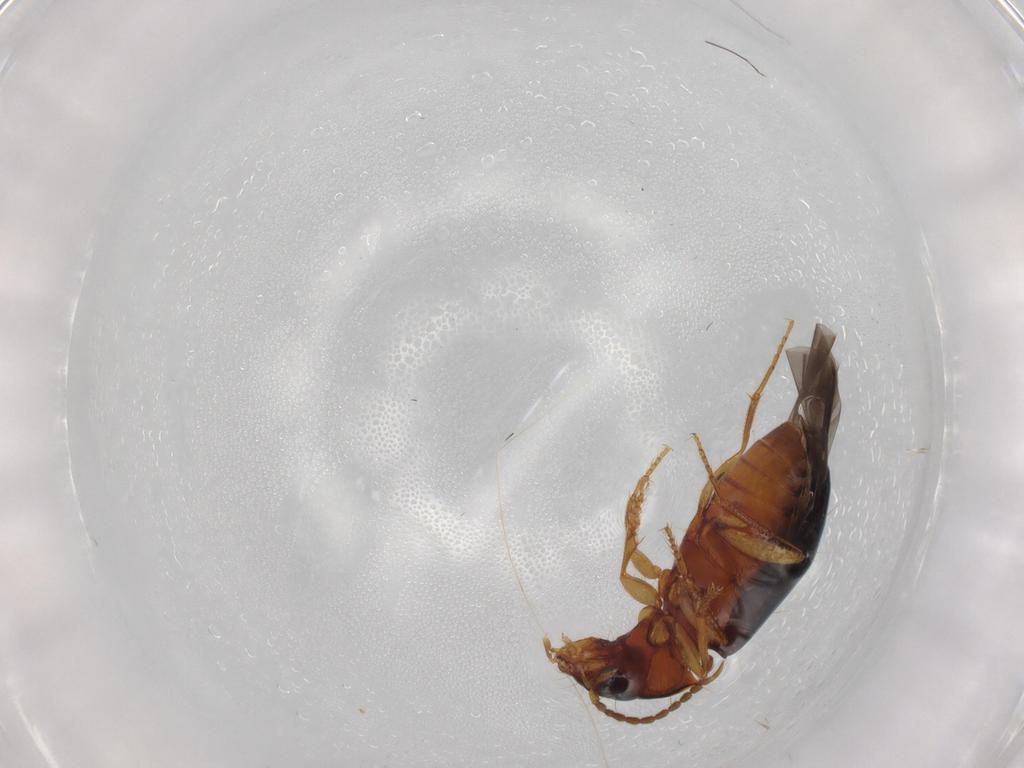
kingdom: Animalia
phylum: Arthropoda
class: Insecta
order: Coleoptera
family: Carabidae
